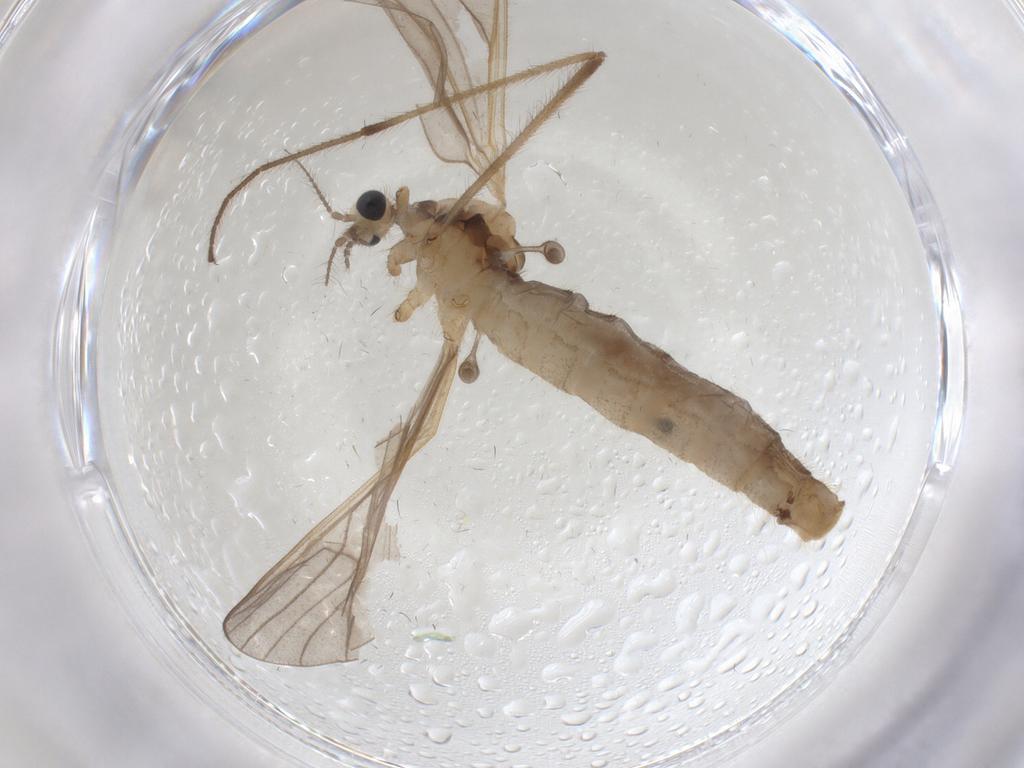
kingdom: Animalia
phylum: Arthropoda
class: Insecta
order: Diptera
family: Limoniidae
